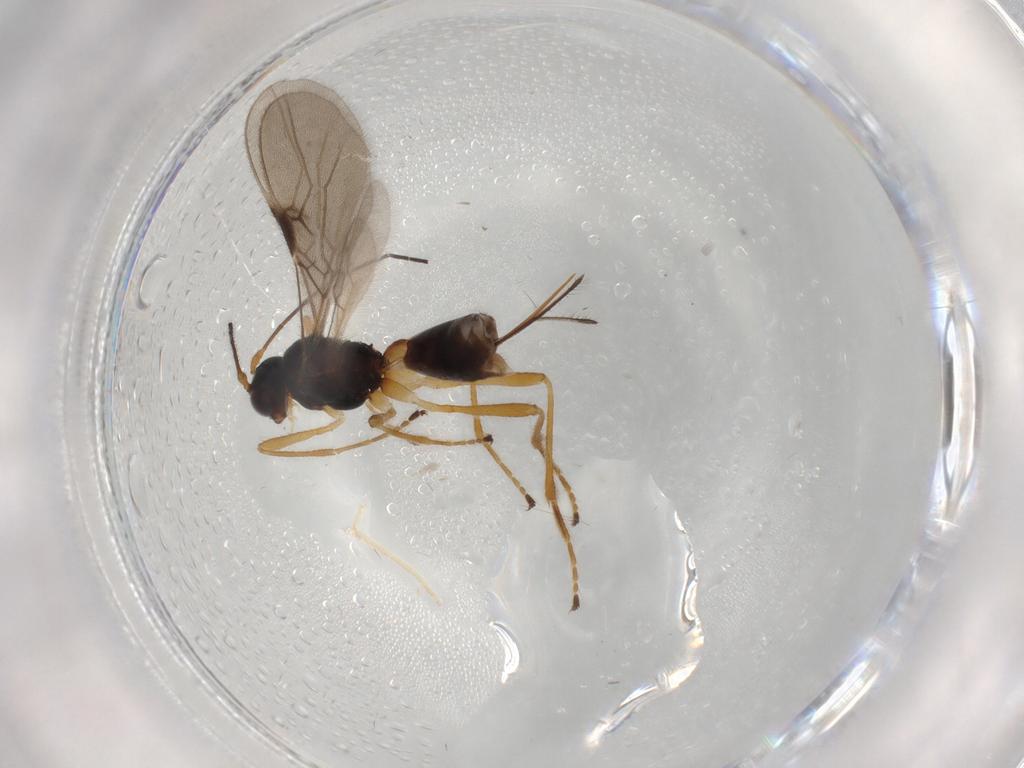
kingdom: Animalia
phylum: Arthropoda
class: Insecta
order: Hymenoptera
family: Braconidae
